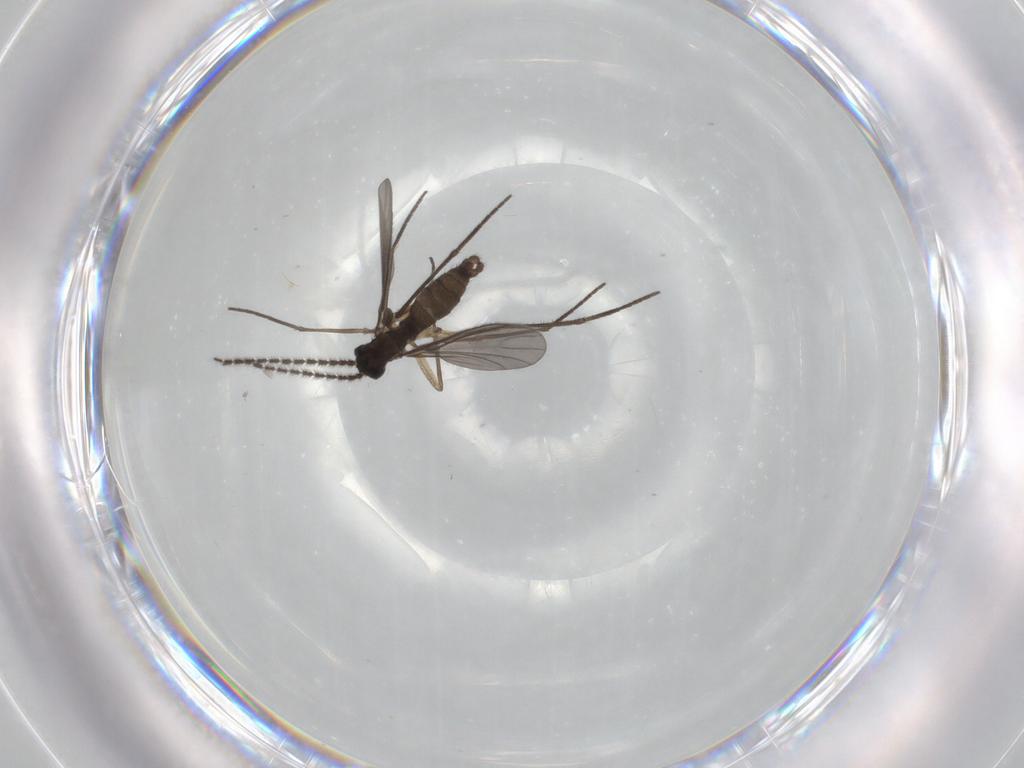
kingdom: Animalia
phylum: Arthropoda
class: Insecta
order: Diptera
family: Sciaridae
